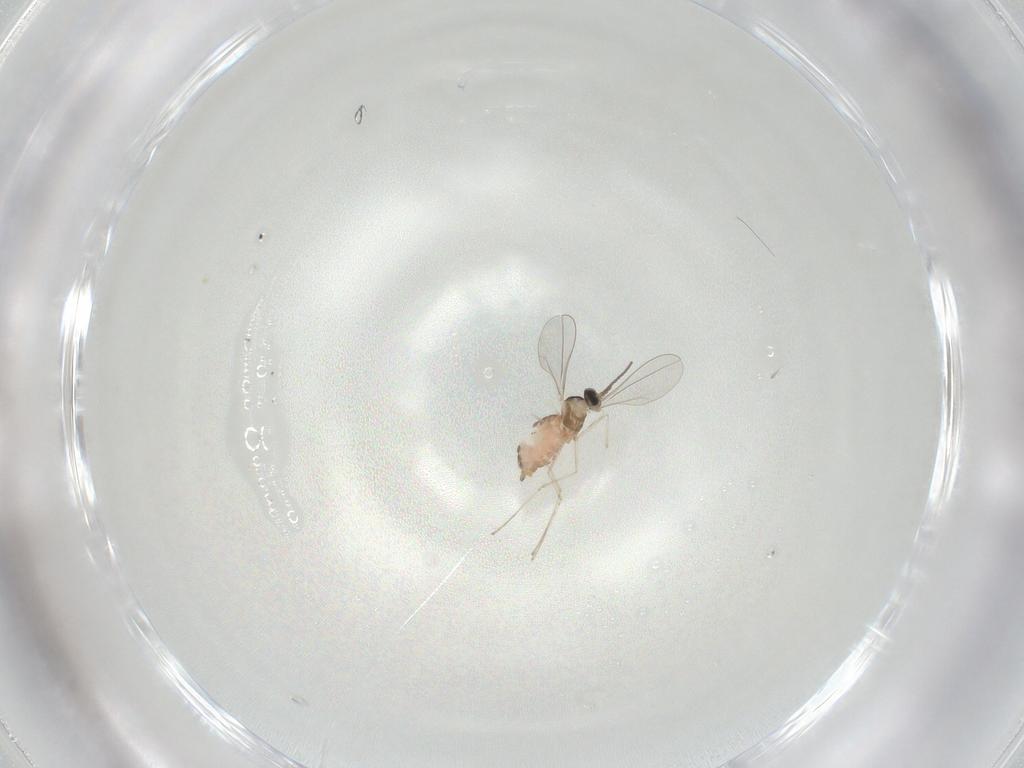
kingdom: Animalia
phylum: Arthropoda
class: Insecta
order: Diptera
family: Cecidomyiidae
